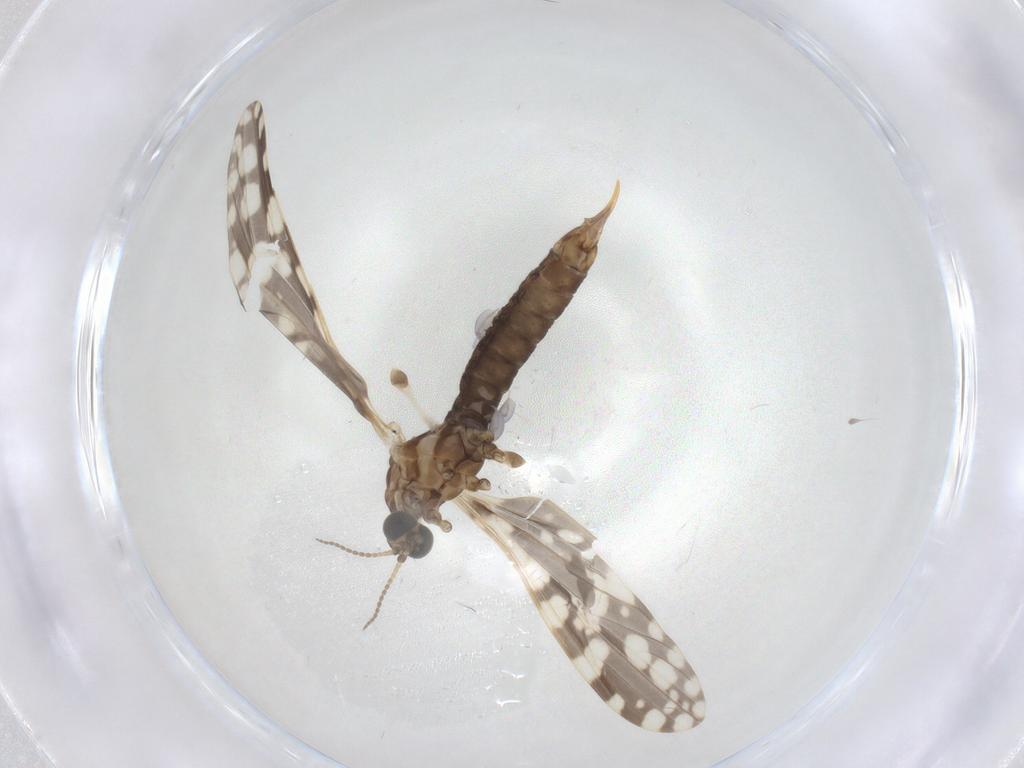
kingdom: Animalia
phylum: Arthropoda
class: Insecta
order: Diptera
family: Limoniidae
